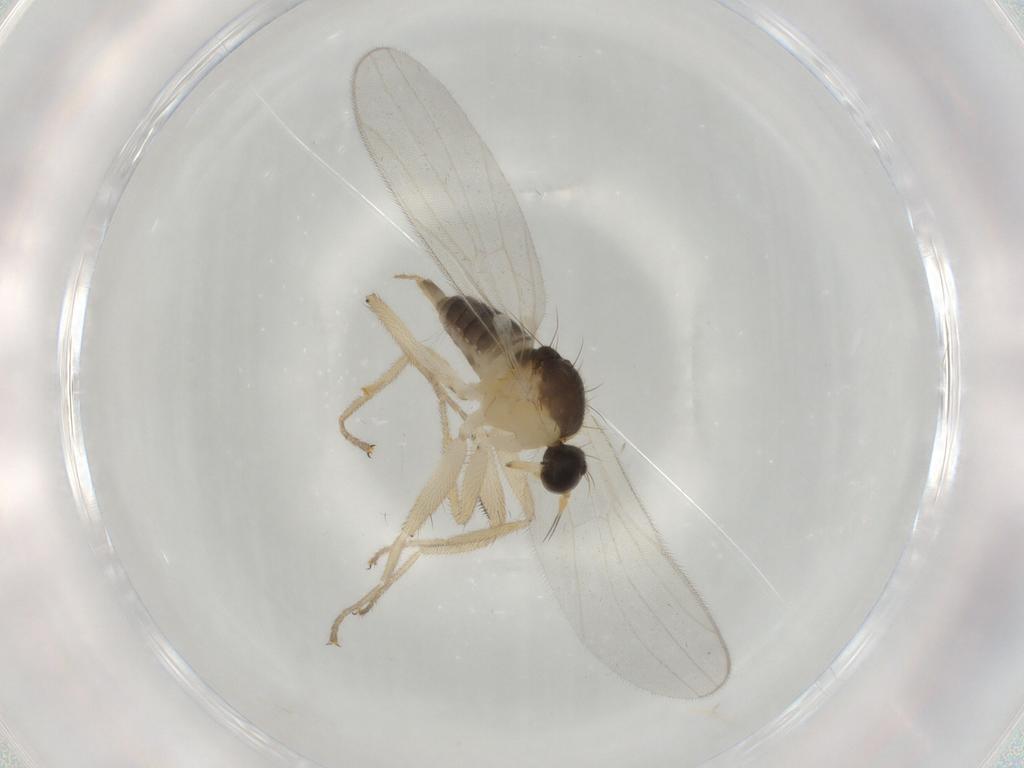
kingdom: Animalia
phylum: Arthropoda
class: Insecta
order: Diptera
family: Hybotidae
